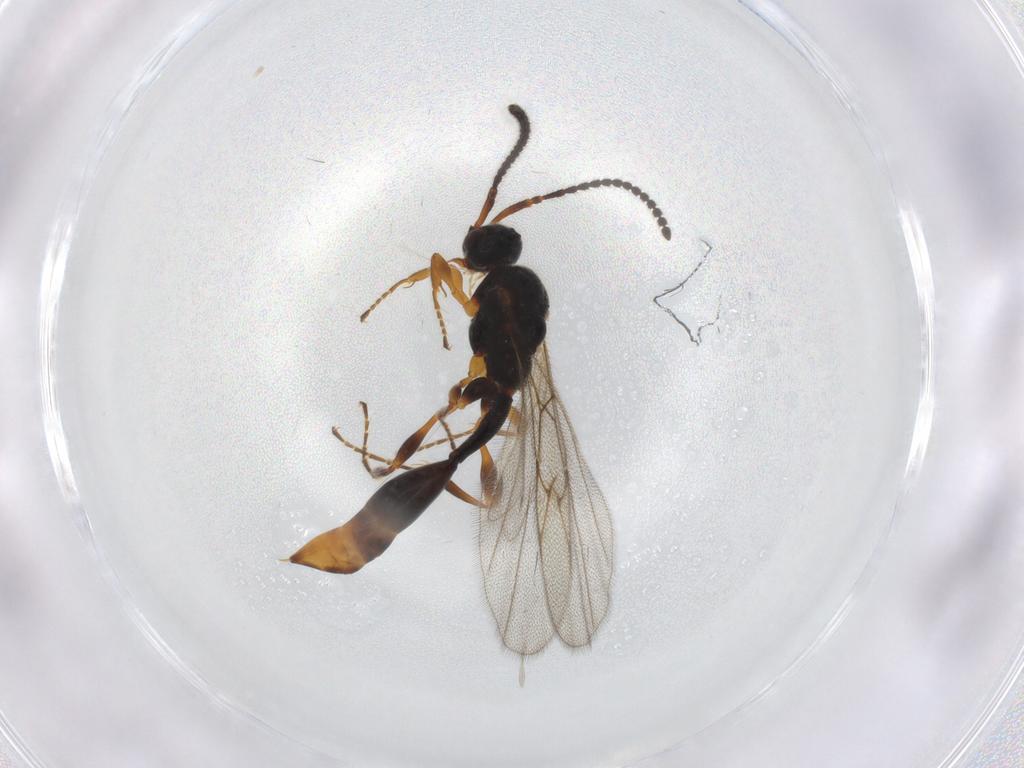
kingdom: Animalia
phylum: Arthropoda
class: Insecta
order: Hymenoptera
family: Diapriidae
